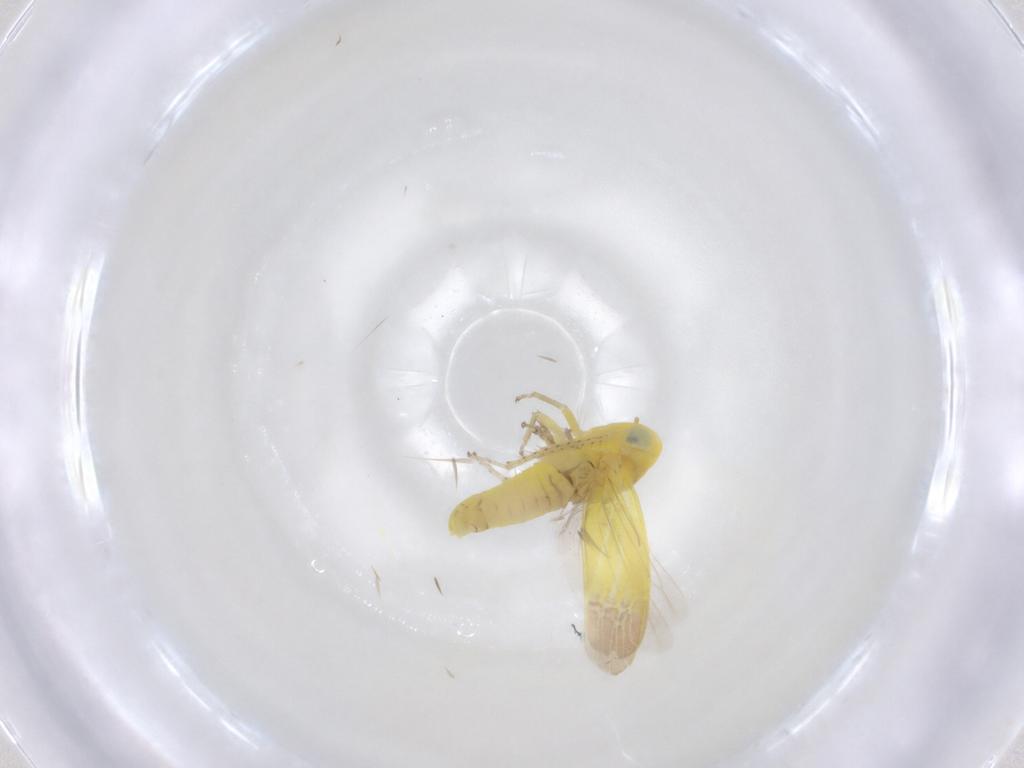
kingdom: Animalia
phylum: Arthropoda
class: Insecta
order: Hemiptera
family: Cicadellidae
